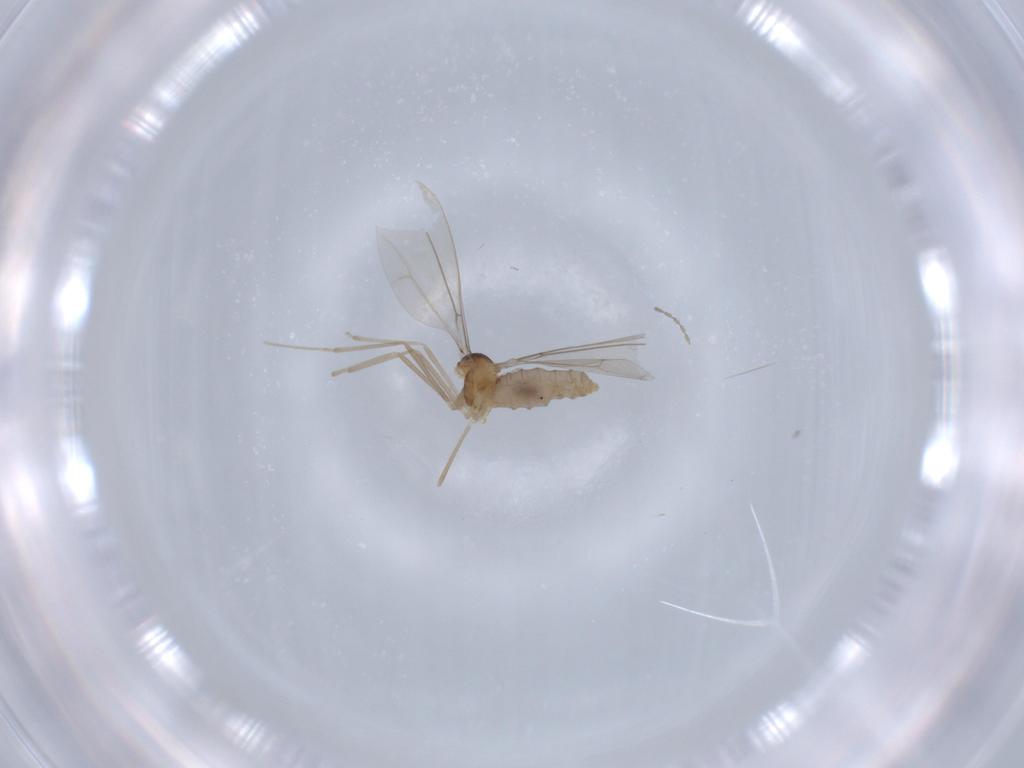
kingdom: Animalia
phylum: Arthropoda
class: Insecta
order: Diptera
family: Cecidomyiidae
